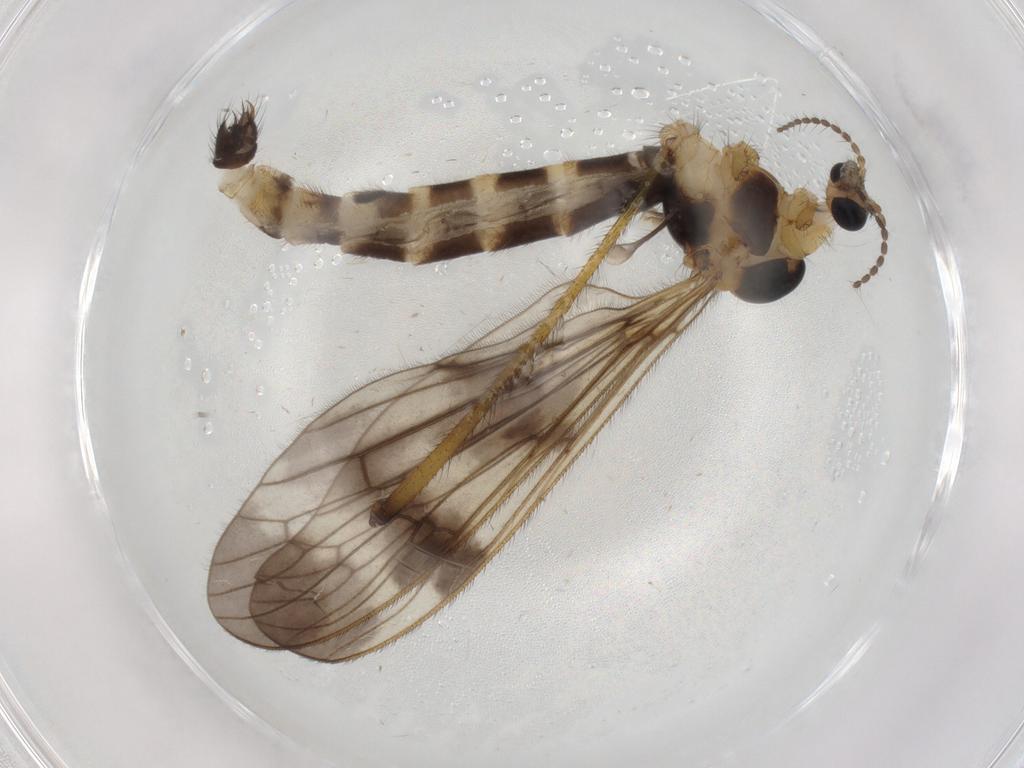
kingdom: Animalia
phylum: Arthropoda
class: Insecta
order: Diptera
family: Limoniidae
